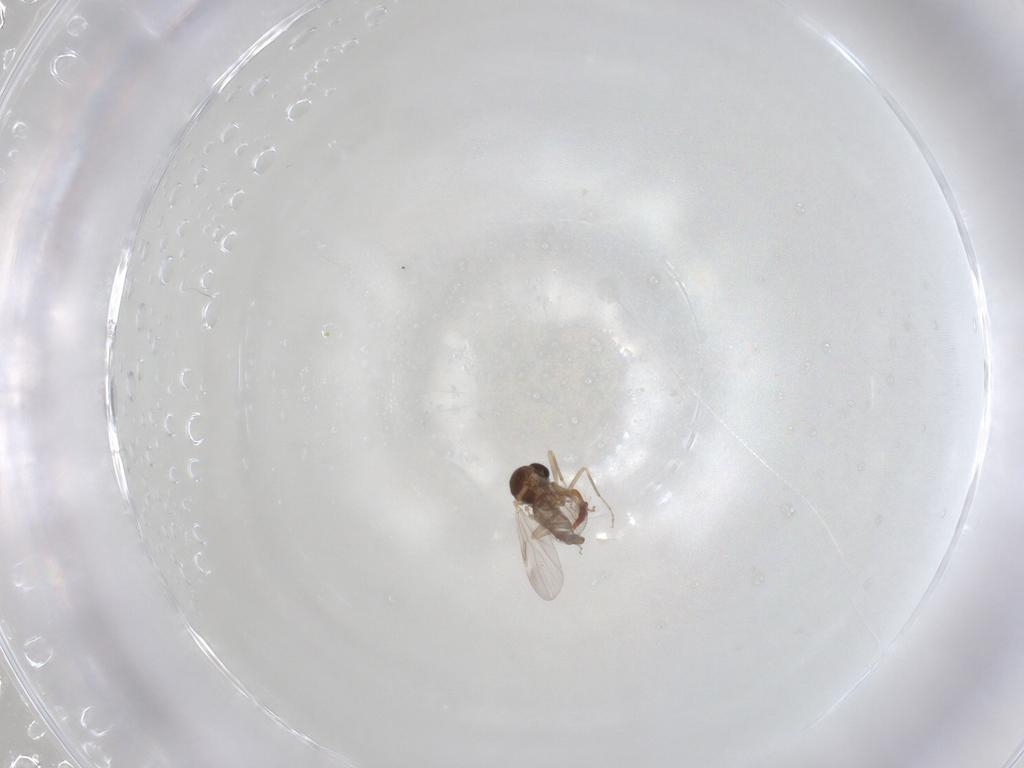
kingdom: Animalia
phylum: Arthropoda
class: Insecta
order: Diptera
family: Ceratopogonidae
